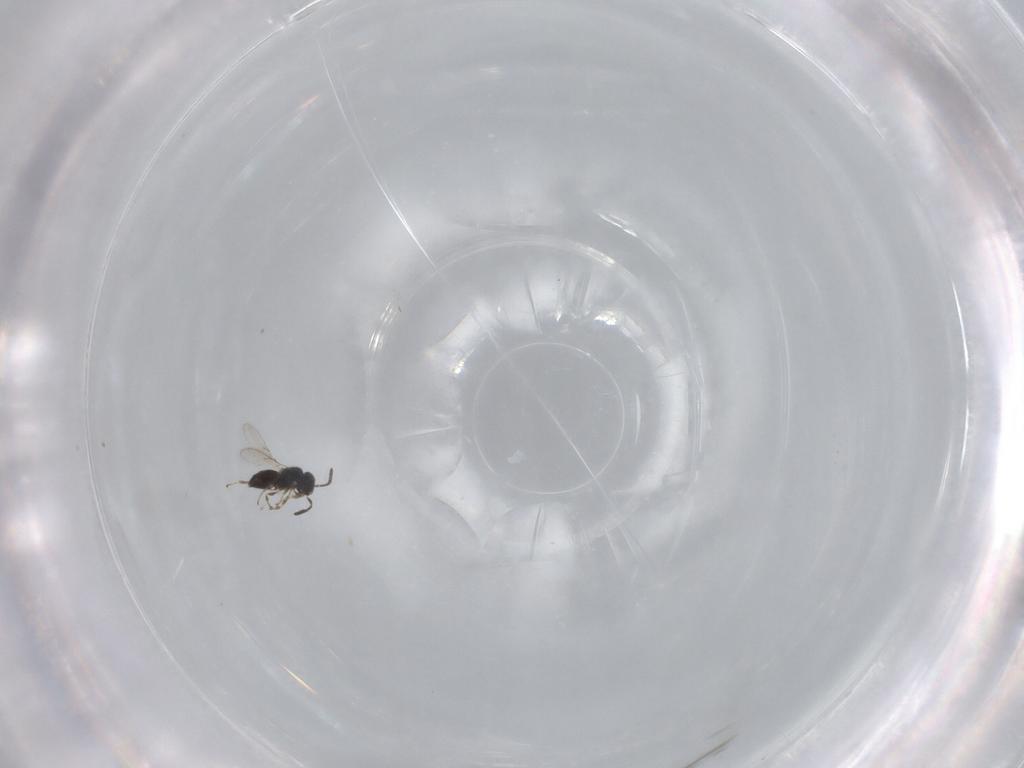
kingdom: Animalia
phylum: Arthropoda
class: Insecta
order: Hymenoptera
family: Scelionidae
